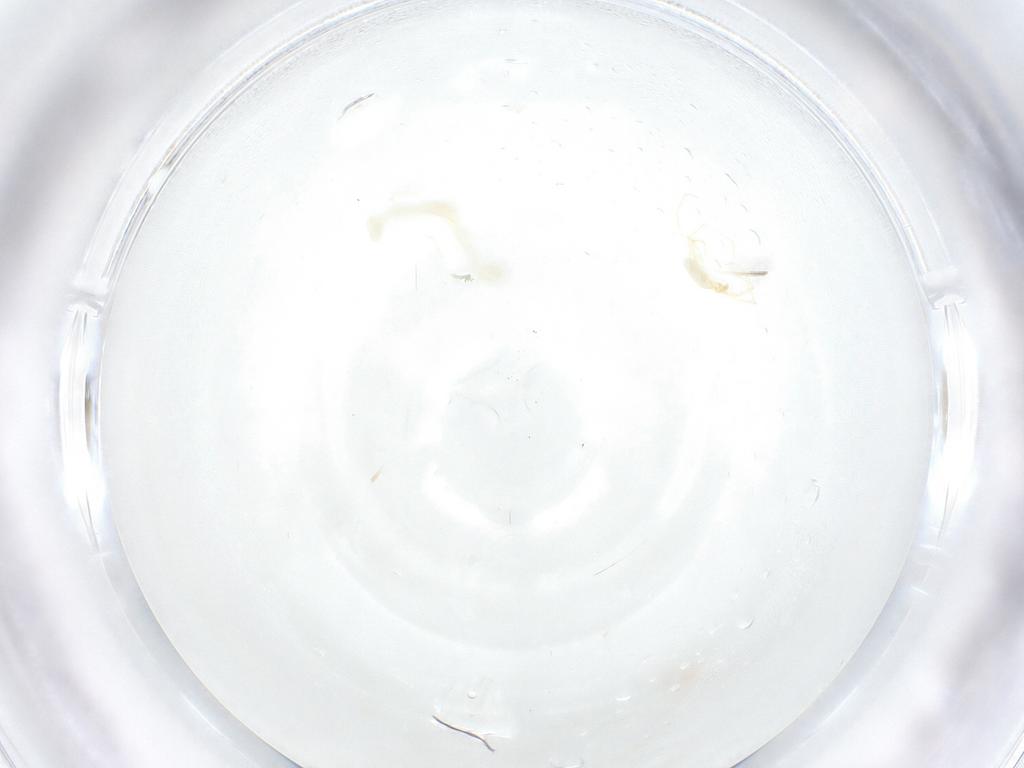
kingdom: Animalia
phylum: Arthropoda
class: Arachnida
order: Trombidiformes
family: Erythraeidae
